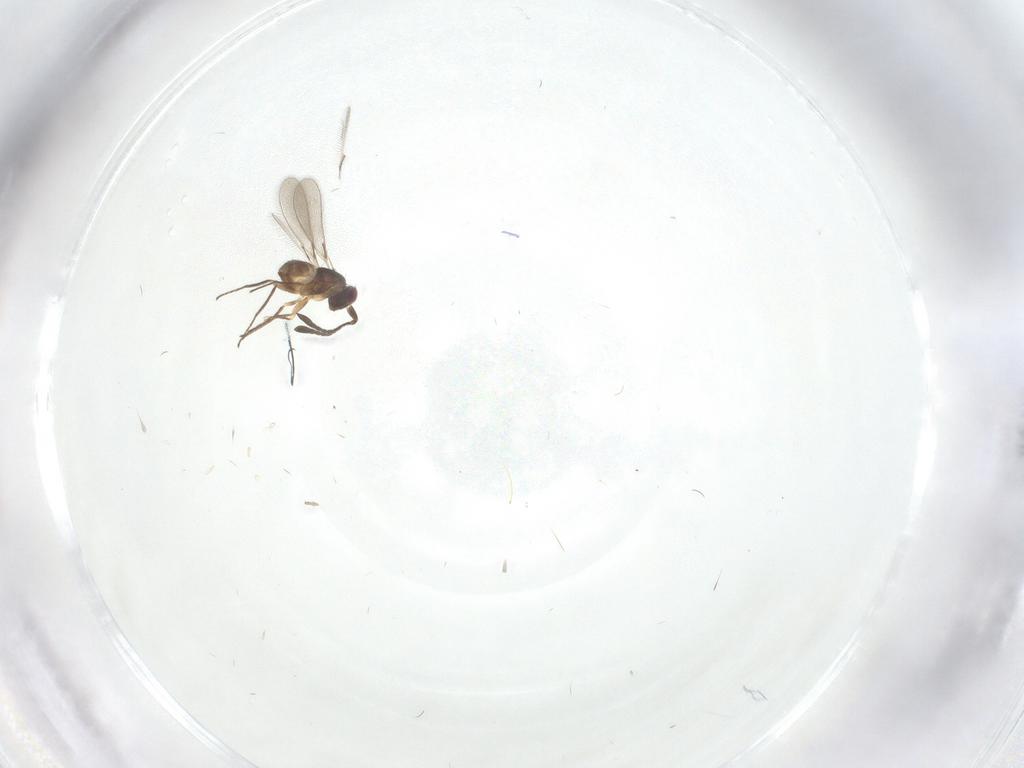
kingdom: Animalia
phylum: Arthropoda
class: Insecta
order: Hymenoptera
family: Mymaridae
